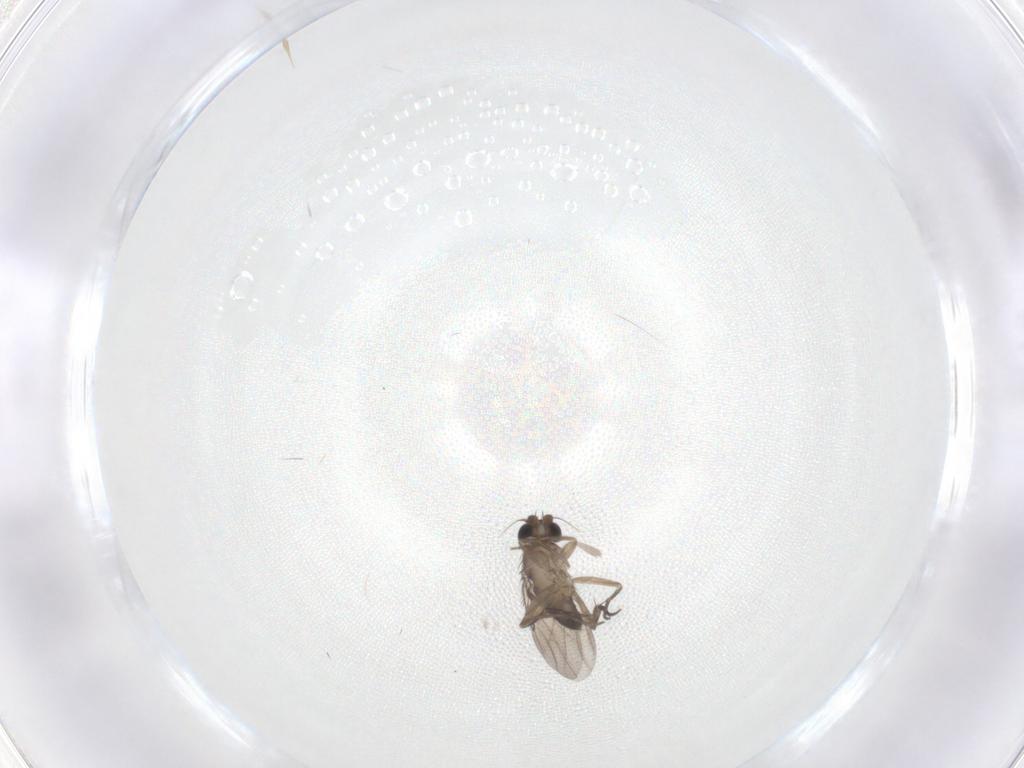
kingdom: Animalia
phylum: Arthropoda
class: Insecta
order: Diptera
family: Phoridae
